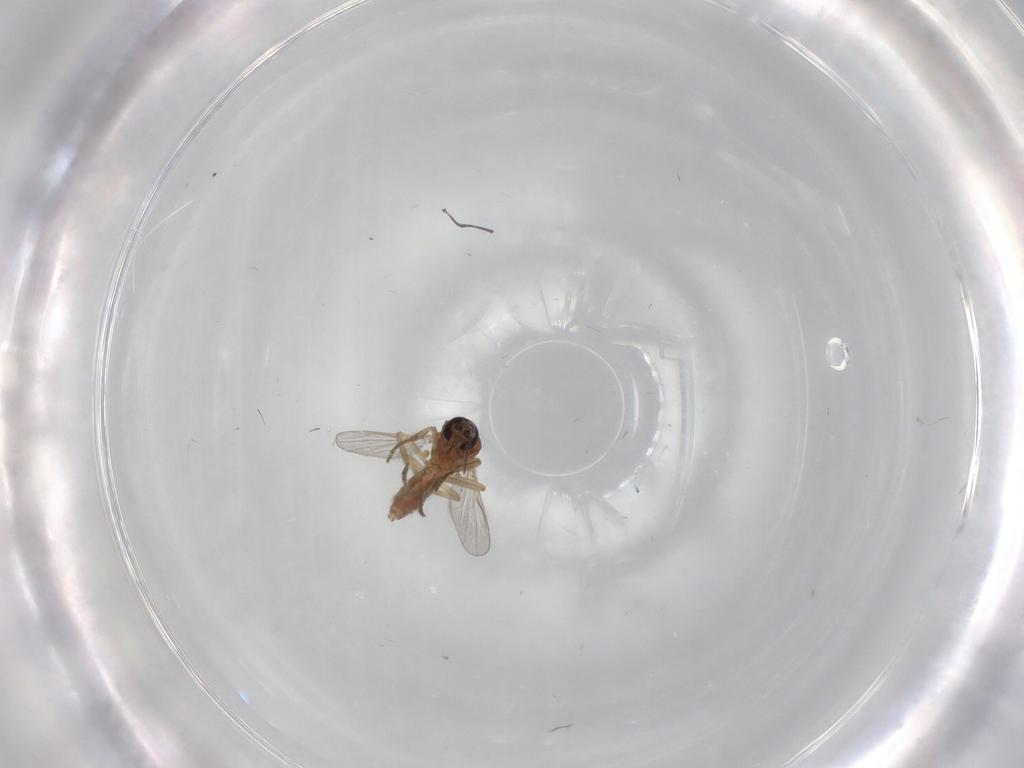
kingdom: Animalia
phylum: Arthropoda
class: Insecta
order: Diptera
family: Ceratopogonidae
